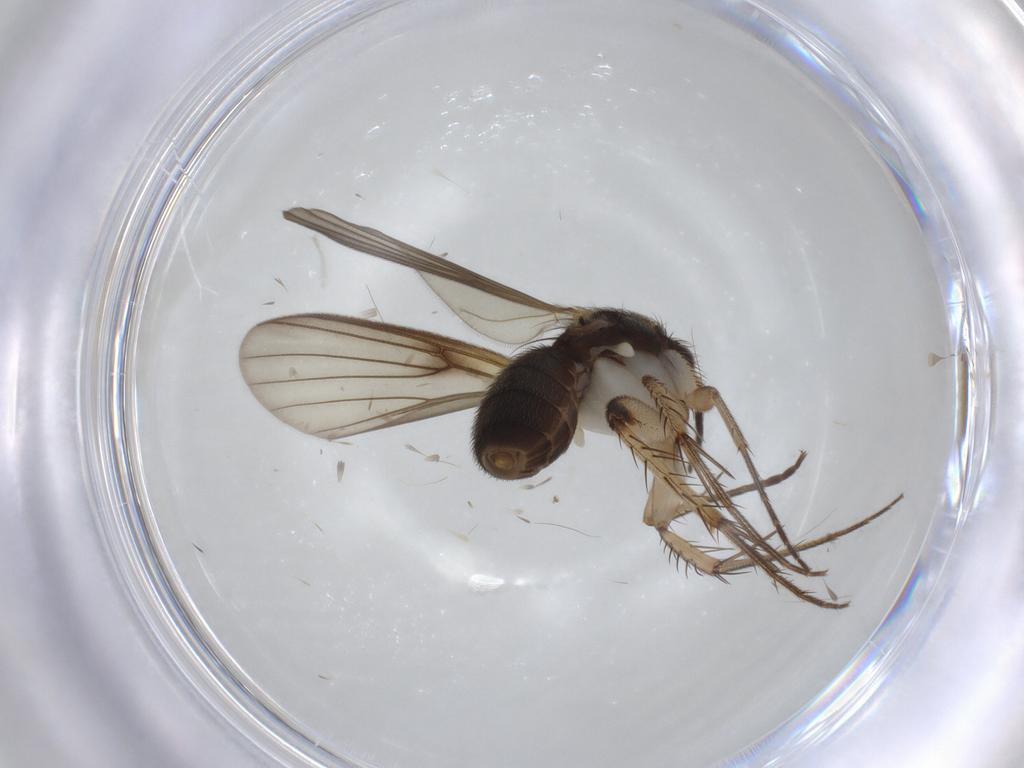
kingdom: Animalia
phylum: Arthropoda
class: Insecta
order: Diptera
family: Mycetophilidae
